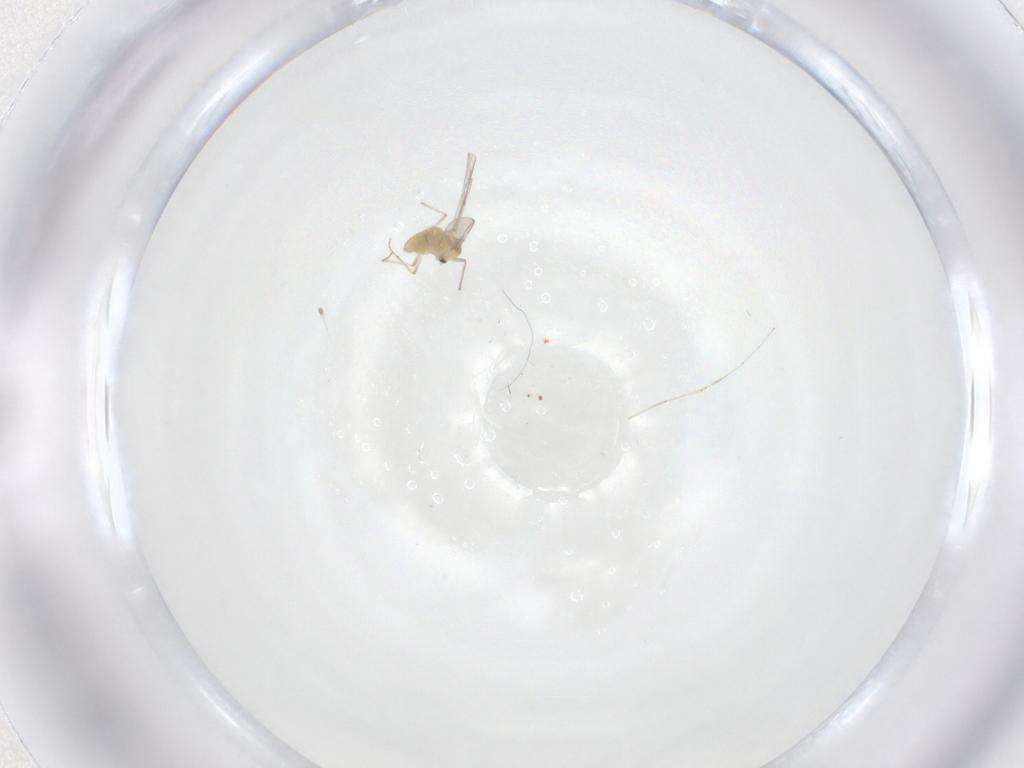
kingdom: Animalia
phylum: Arthropoda
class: Insecta
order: Diptera
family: Chironomidae
